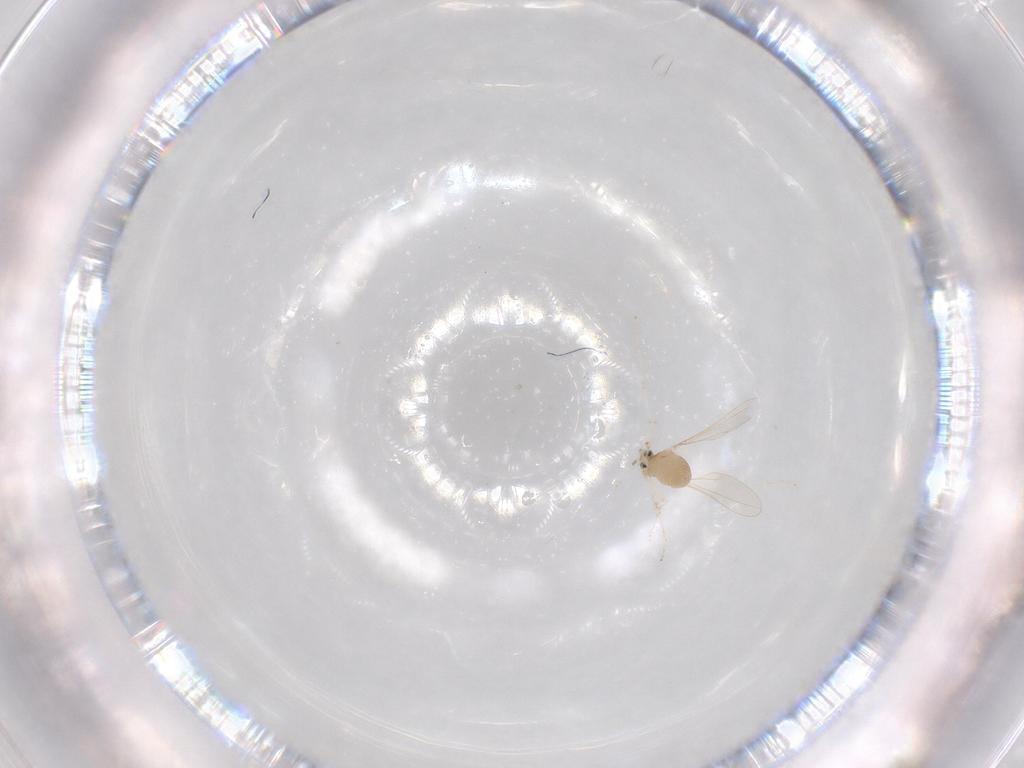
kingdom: Animalia
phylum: Arthropoda
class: Insecta
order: Diptera
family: Cecidomyiidae
